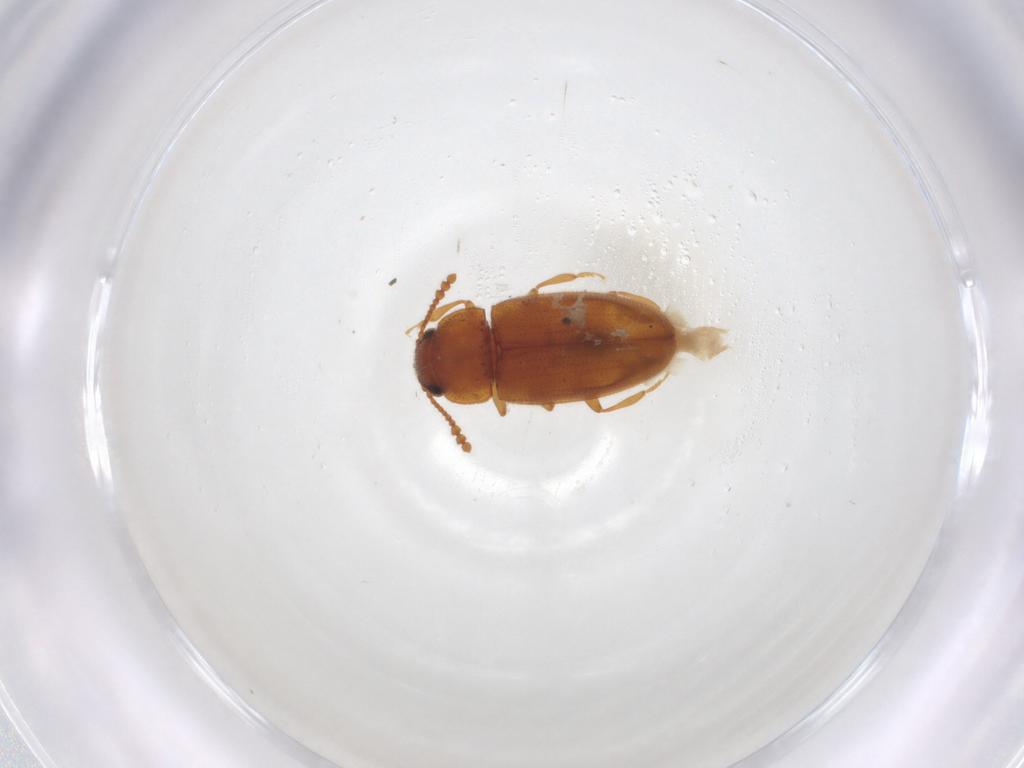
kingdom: Animalia
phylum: Arthropoda
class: Insecta
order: Coleoptera
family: Erotylidae
